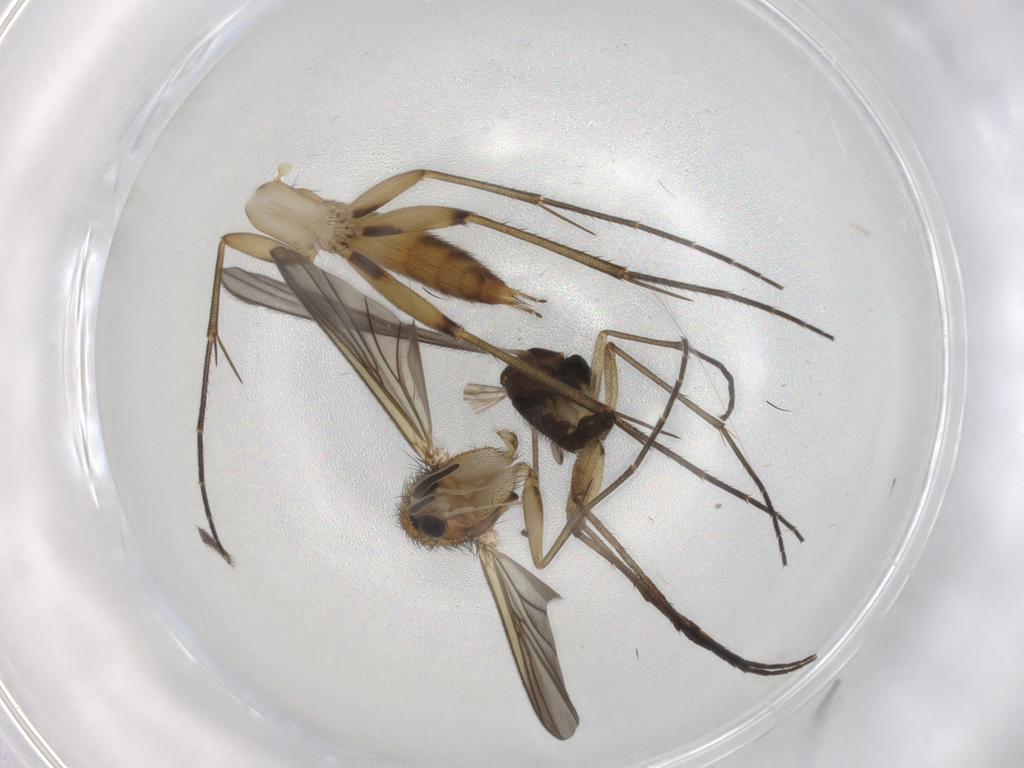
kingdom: Animalia
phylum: Arthropoda
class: Insecta
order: Diptera
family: Sciaridae
